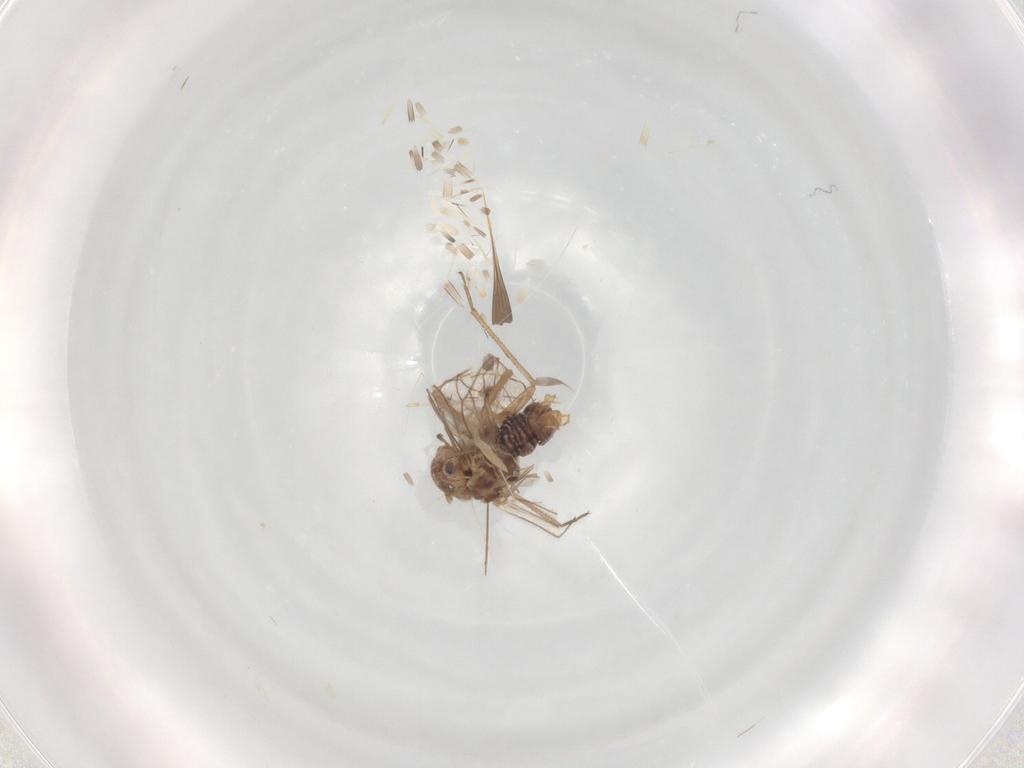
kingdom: Animalia
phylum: Arthropoda
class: Insecta
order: Psocodea
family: Lachesillidae
